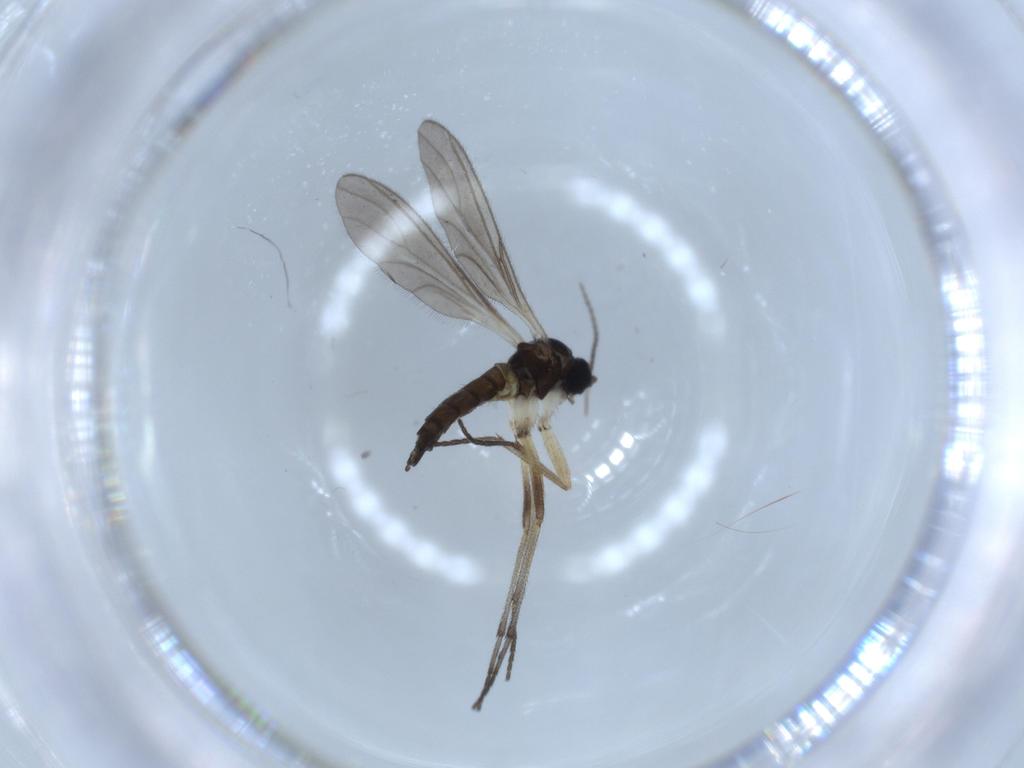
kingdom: Animalia
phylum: Arthropoda
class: Insecta
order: Diptera
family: Sciaridae
